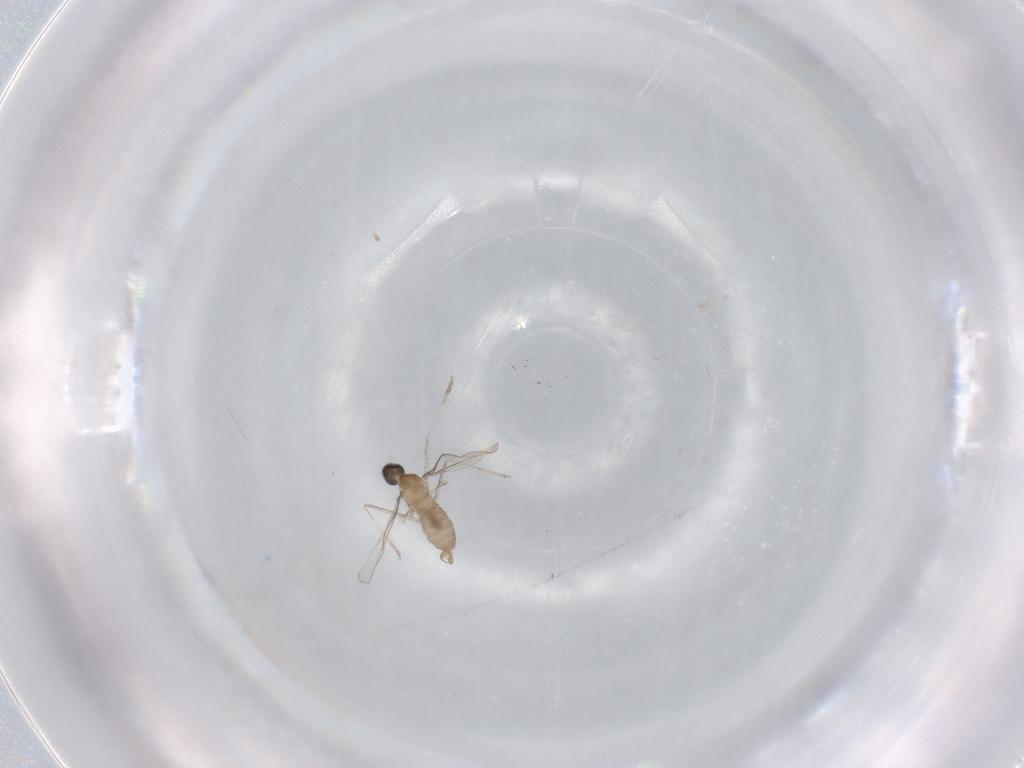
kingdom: Animalia
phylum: Arthropoda
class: Insecta
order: Diptera
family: Cecidomyiidae
